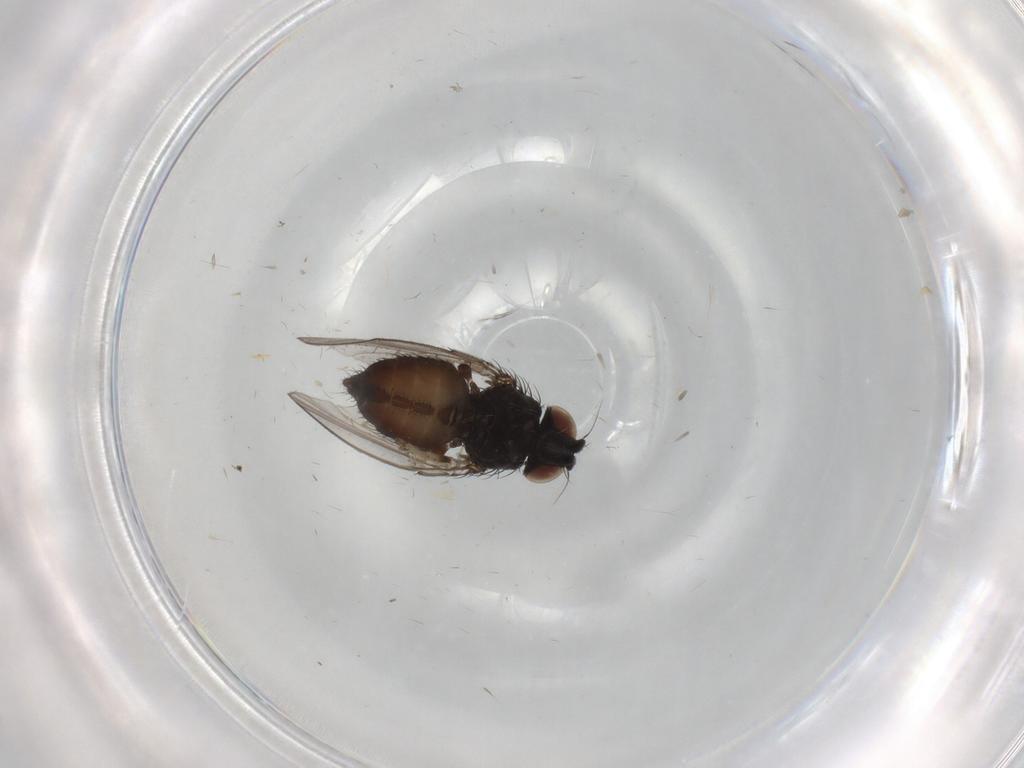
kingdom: Animalia
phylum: Arthropoda
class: Insecta
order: Diptera
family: Milichiidae
